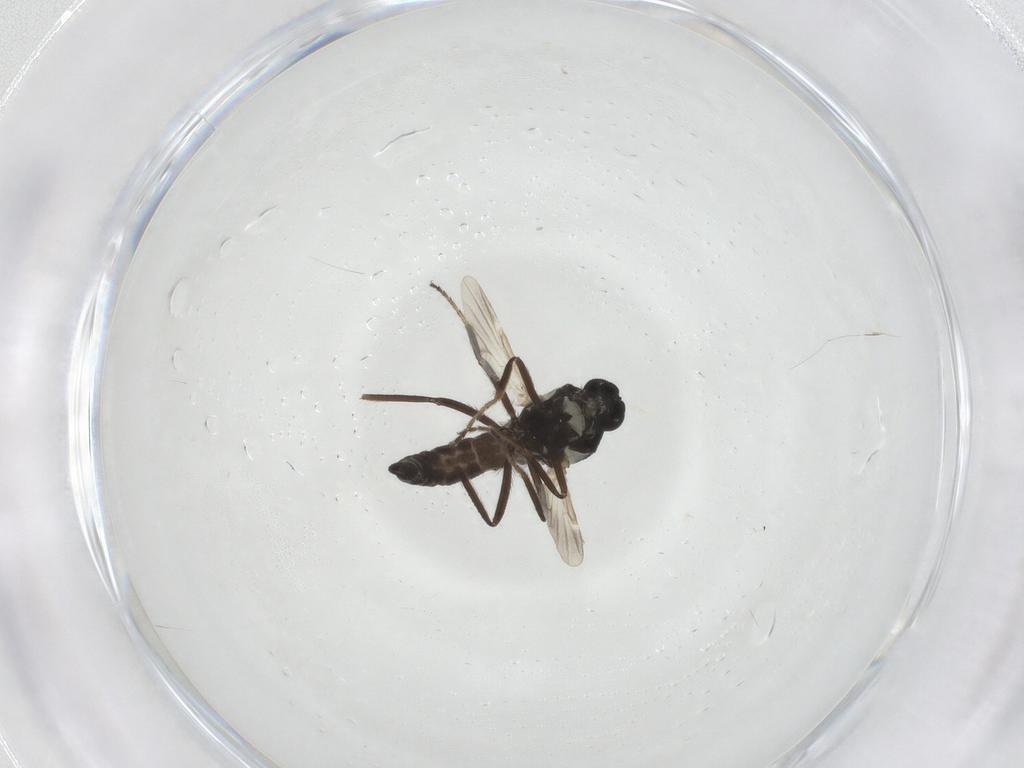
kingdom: Animalia
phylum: Arthropoda
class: Insecta
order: Diptera
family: Ceratopogonidae
